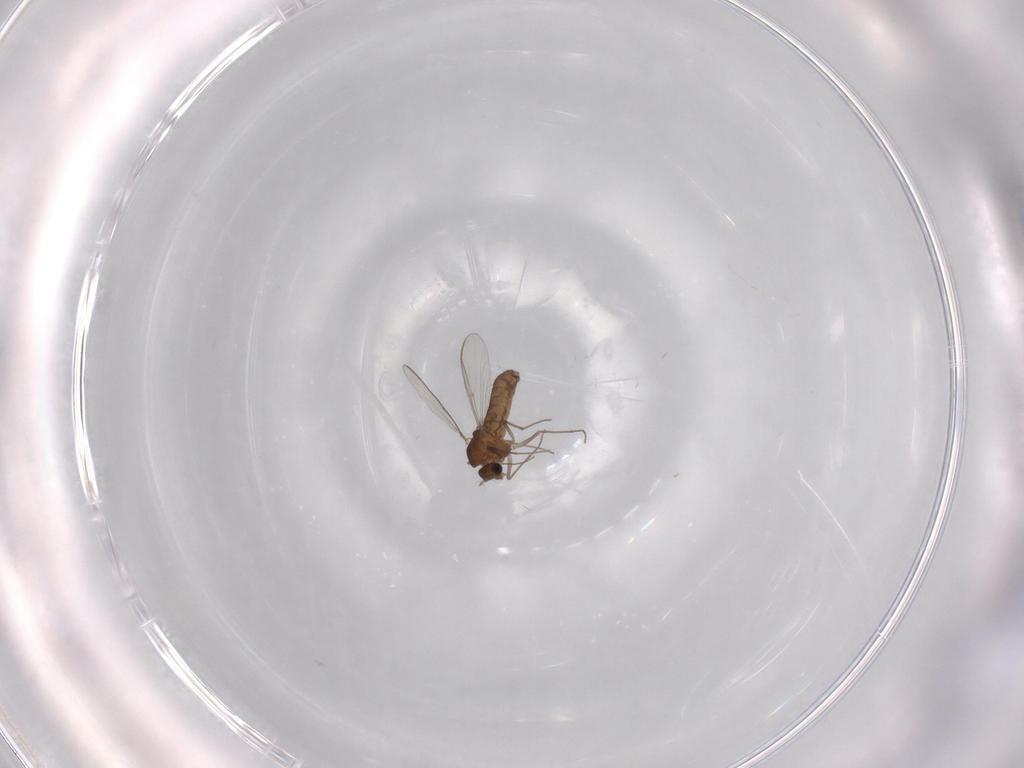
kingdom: Animalia
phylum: Arthropoda
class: Insecta
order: Diptera
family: Chironomidae
